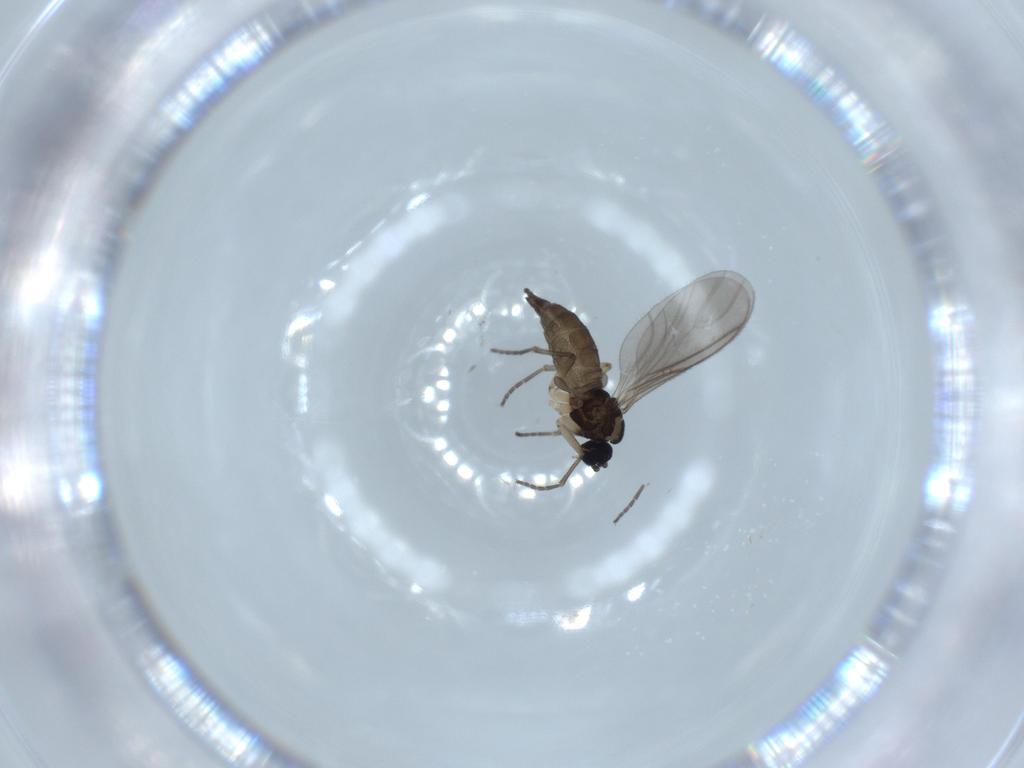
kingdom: Animalia
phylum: Arthropoda
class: Insecta
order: Diptera
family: Sciaridae
